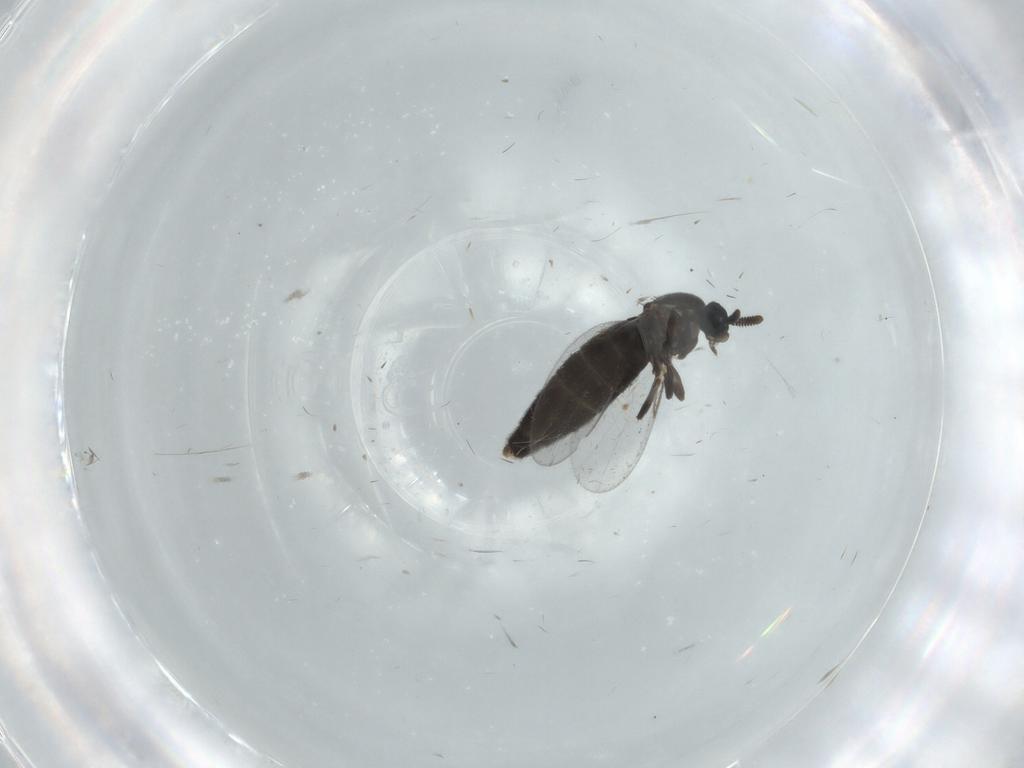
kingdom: Animalia
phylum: Arthropoda
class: Insecta
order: Diptera
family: Scatopsidae
